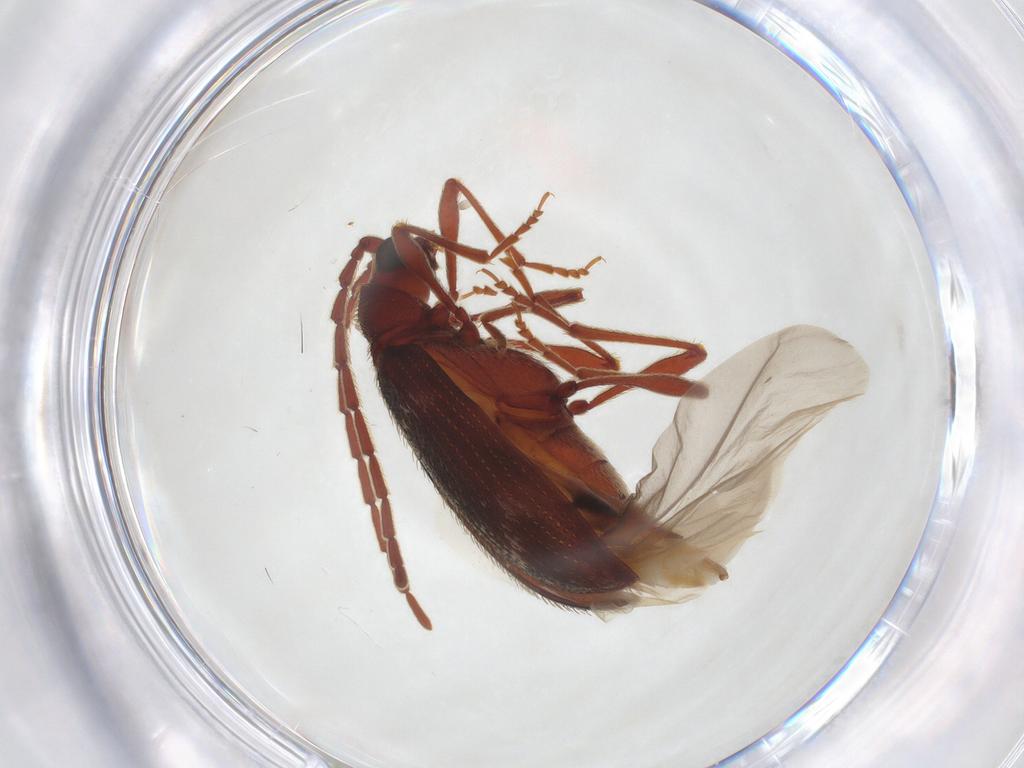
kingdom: Animalia
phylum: Arthropoda
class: Insecta
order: Coleoptera
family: Ptinidae
